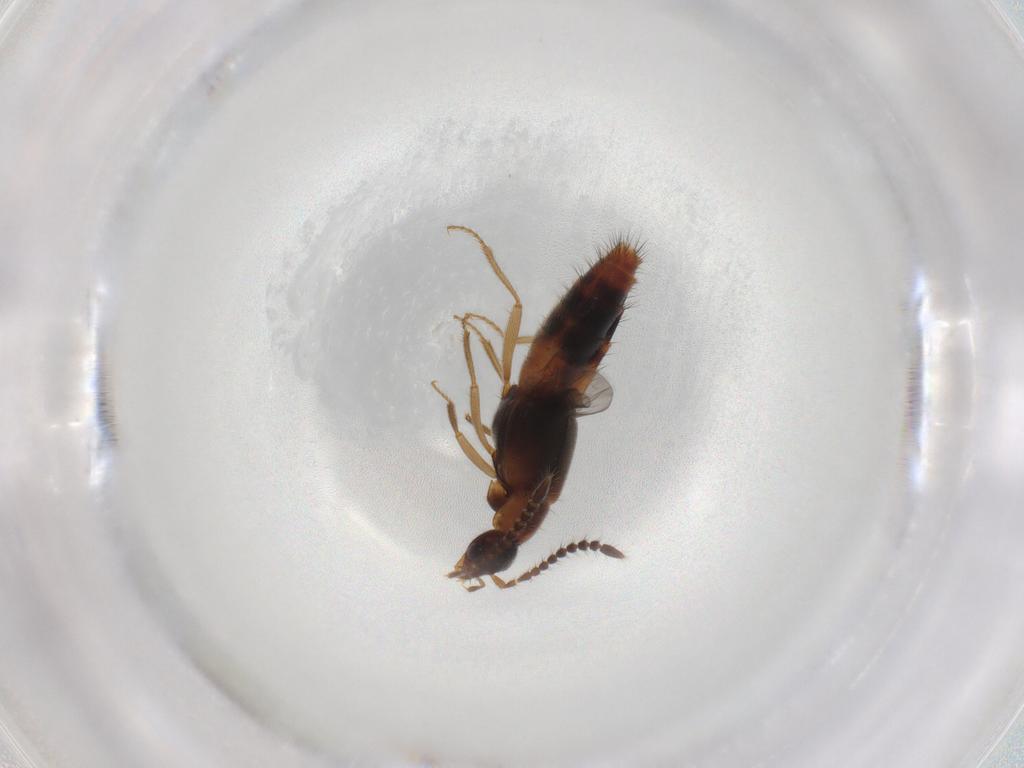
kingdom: Animalia
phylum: Arthropoda
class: Insecta
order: Coleoptera
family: Staphylinidae
